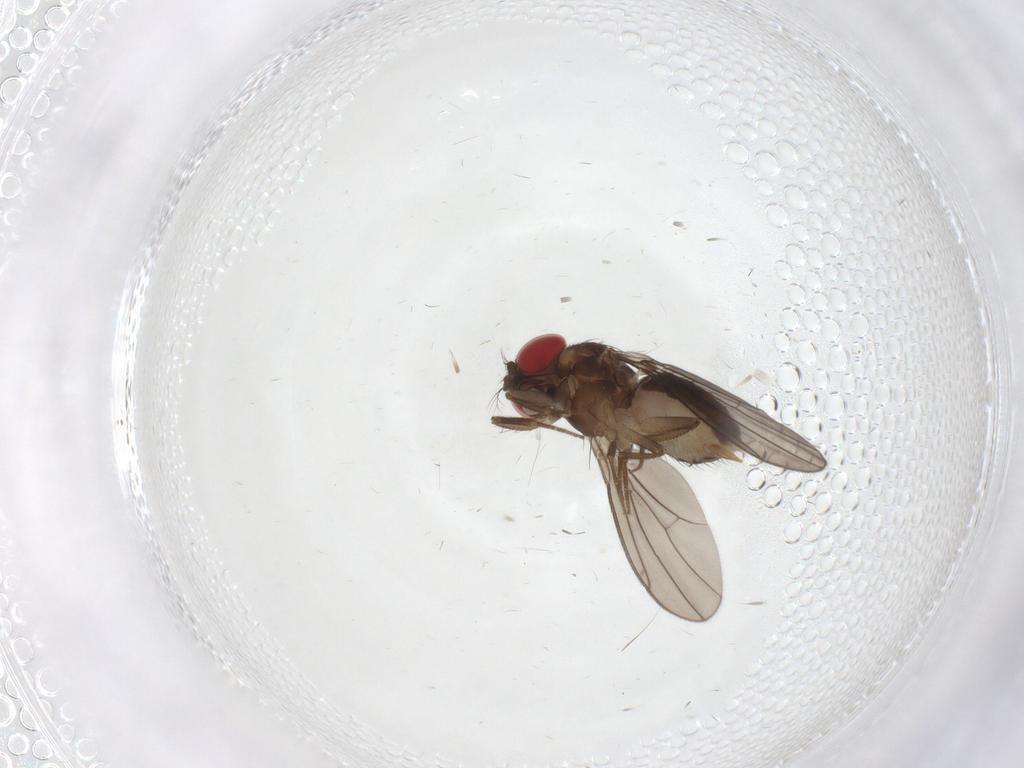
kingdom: Animalia
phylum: Arthropoda
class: Insecta
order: Diptera
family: Drosophilidae
